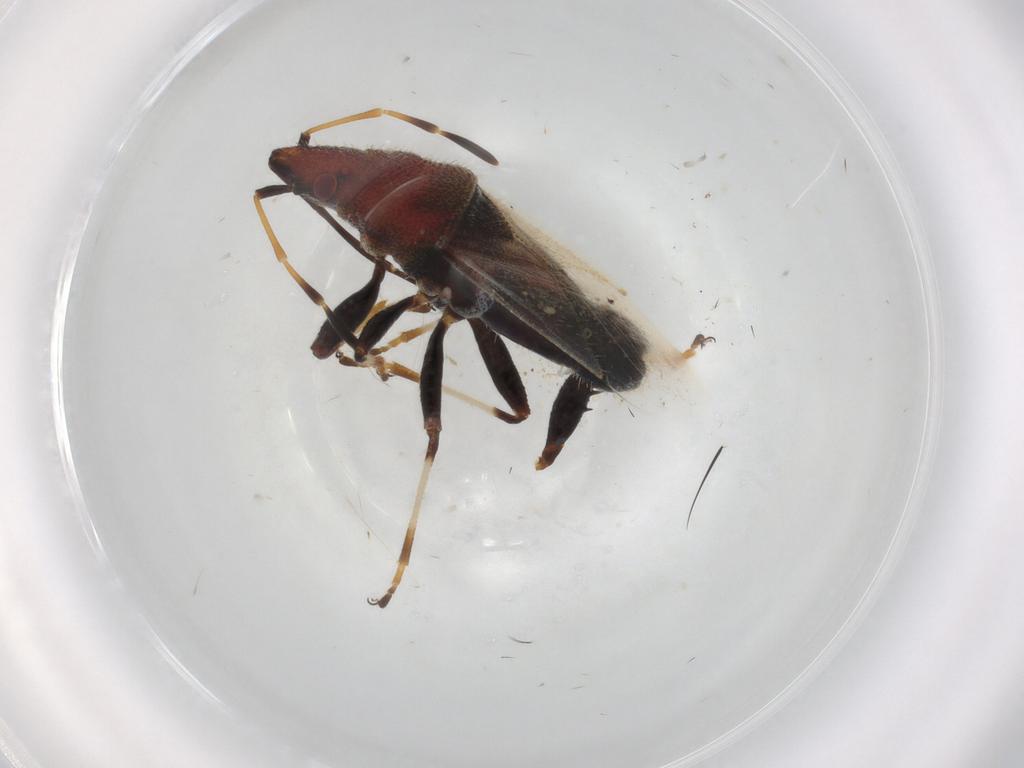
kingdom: Animalia
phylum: Arthropoda
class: Insecta
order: Hemiptera
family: Oxycarenidae
